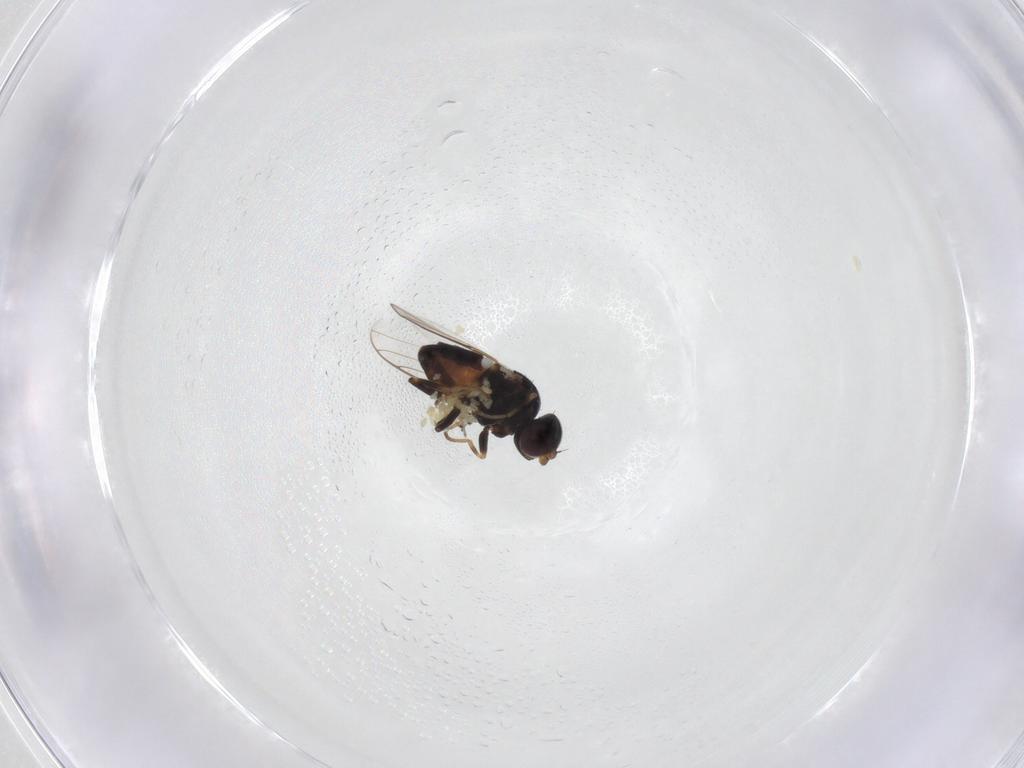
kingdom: Animalia
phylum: Arthropoda
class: Insecta
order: Diptera
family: Chloropidae
